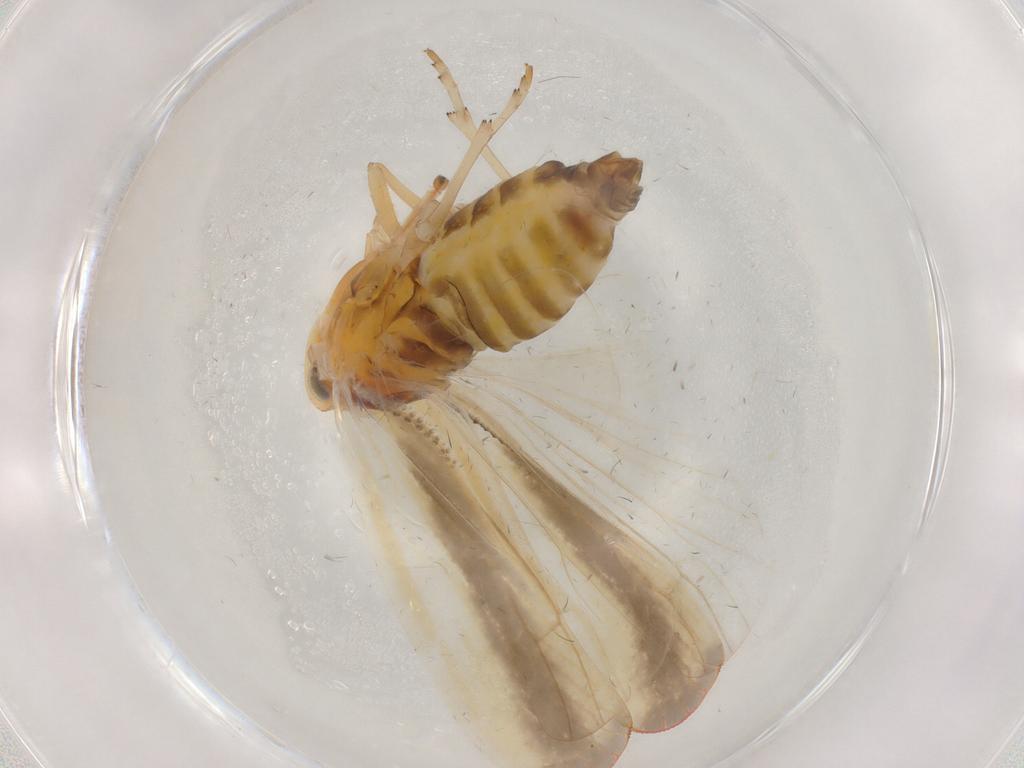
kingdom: Animalia
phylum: Arthropoda
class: Insecta
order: Hemiptera
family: Derbidae
